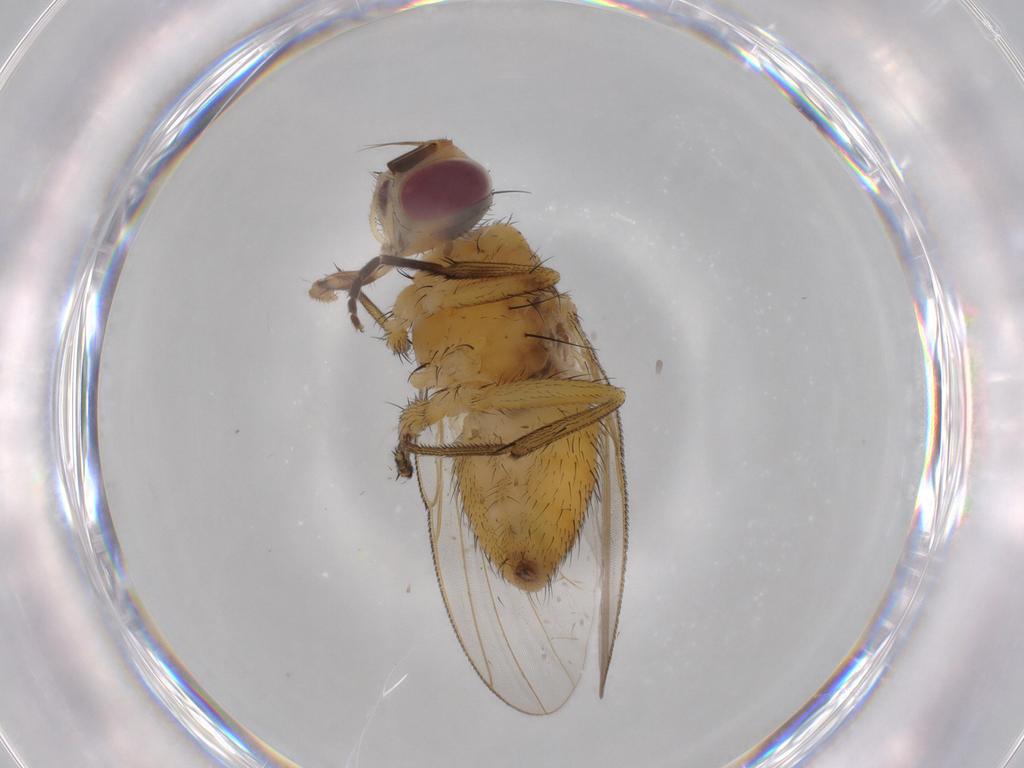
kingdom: Animalia
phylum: Arthropoda
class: Insecta
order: Diptera
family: Muscidae
